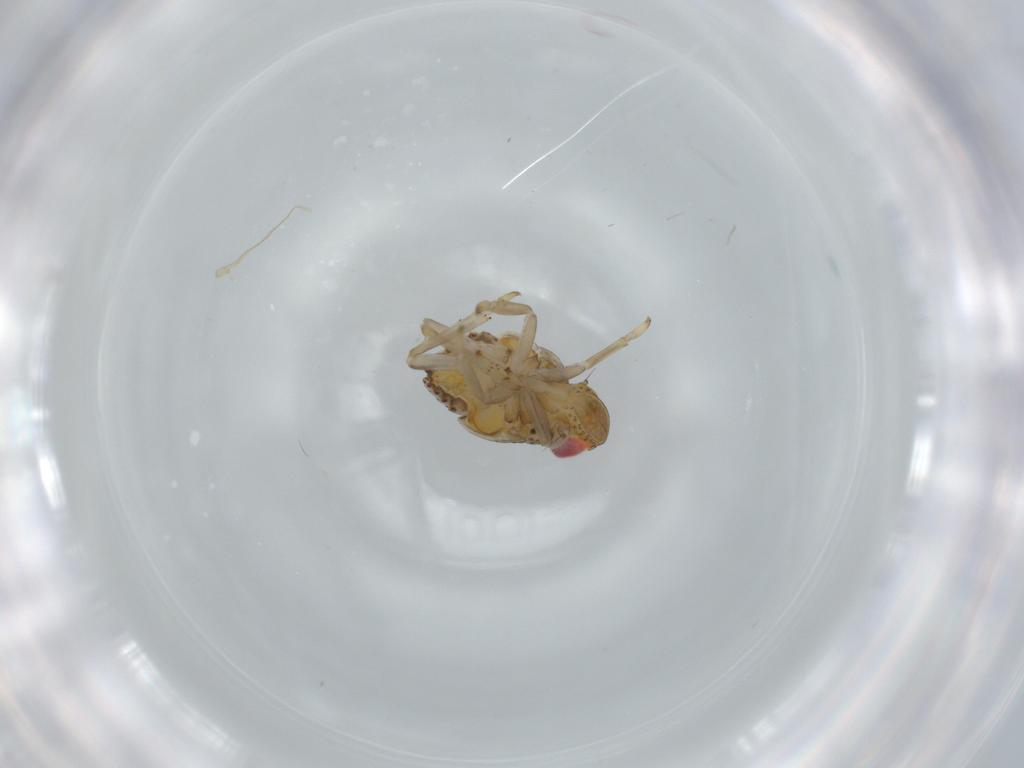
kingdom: Animalia
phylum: Arthropoda
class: Insecta
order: Hemiptera
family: Issidae
